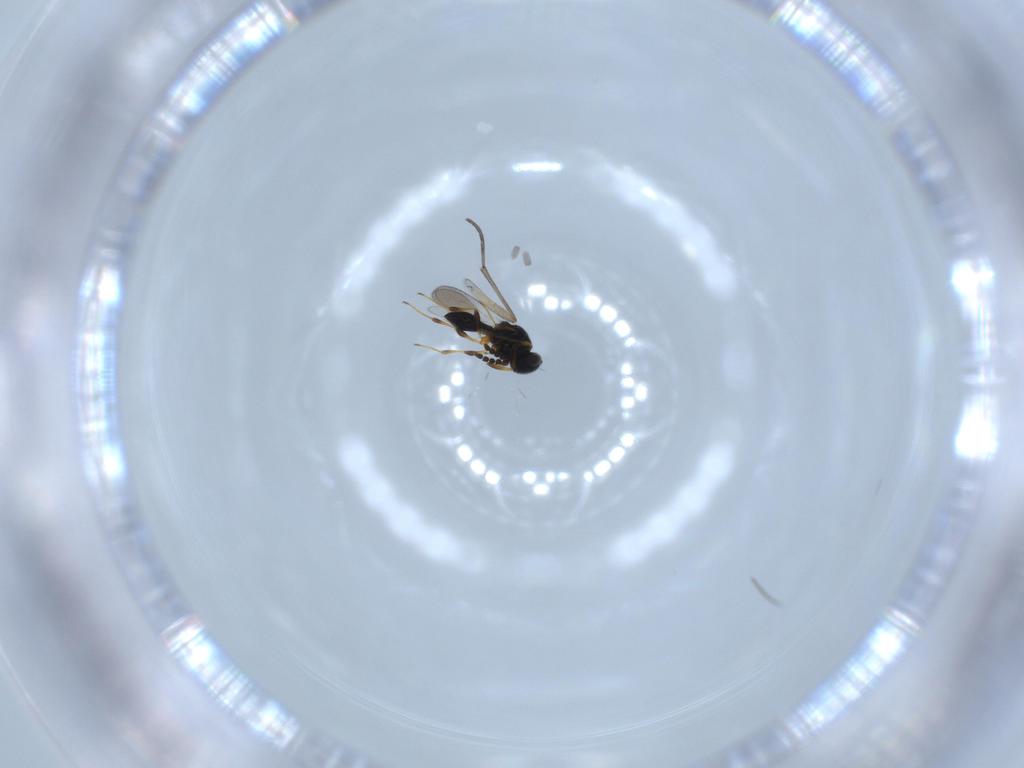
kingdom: Animalia
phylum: Arthropoda
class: Insecta
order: Hymenoptera
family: Platygastridae
